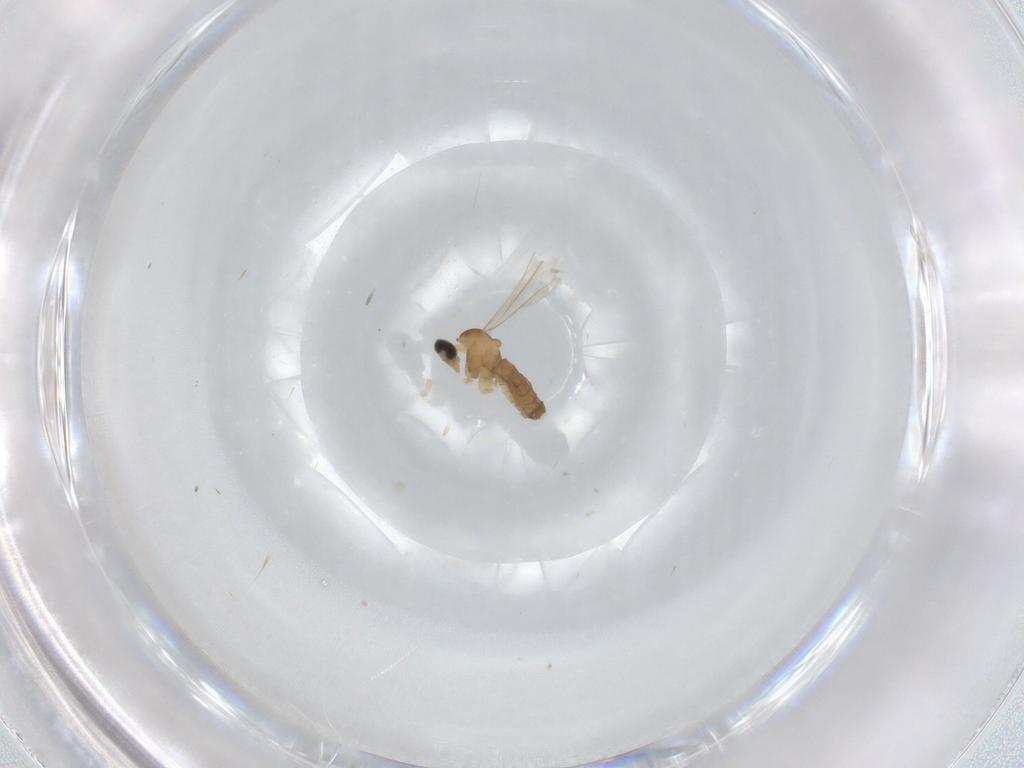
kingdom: Animalia
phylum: Arthropoda
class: Insecta
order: Diptera
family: Cecidomyiidae
